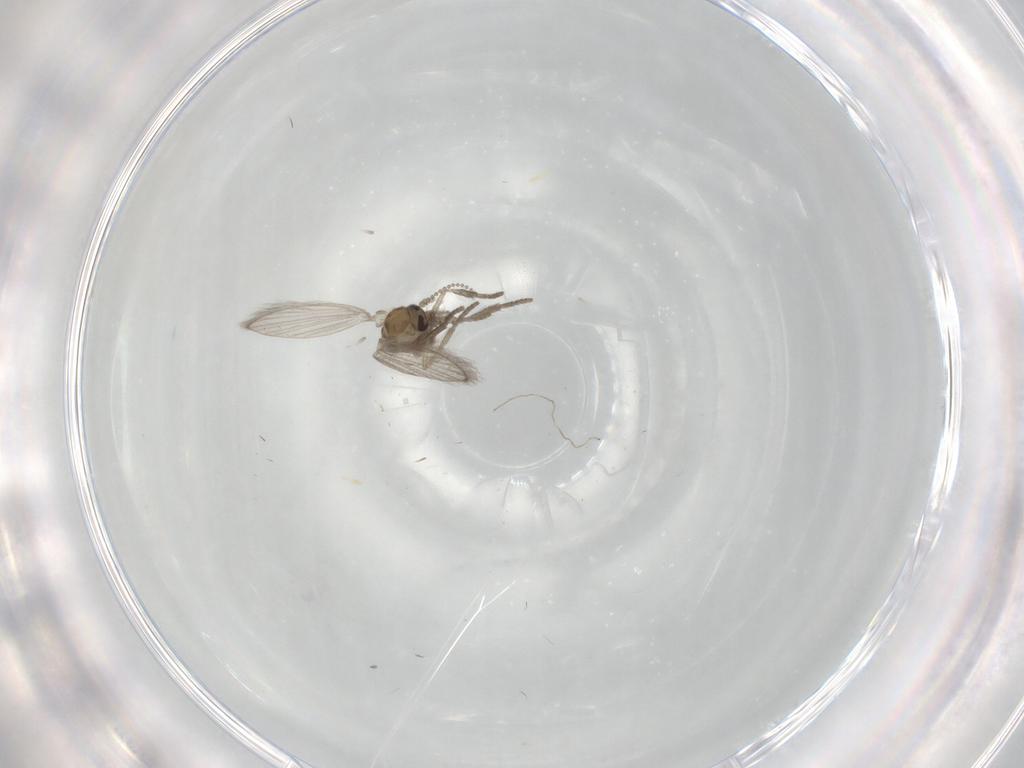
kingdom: Animalia
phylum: Arthropoda
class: Insecta
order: Diptera
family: Psychodidae
